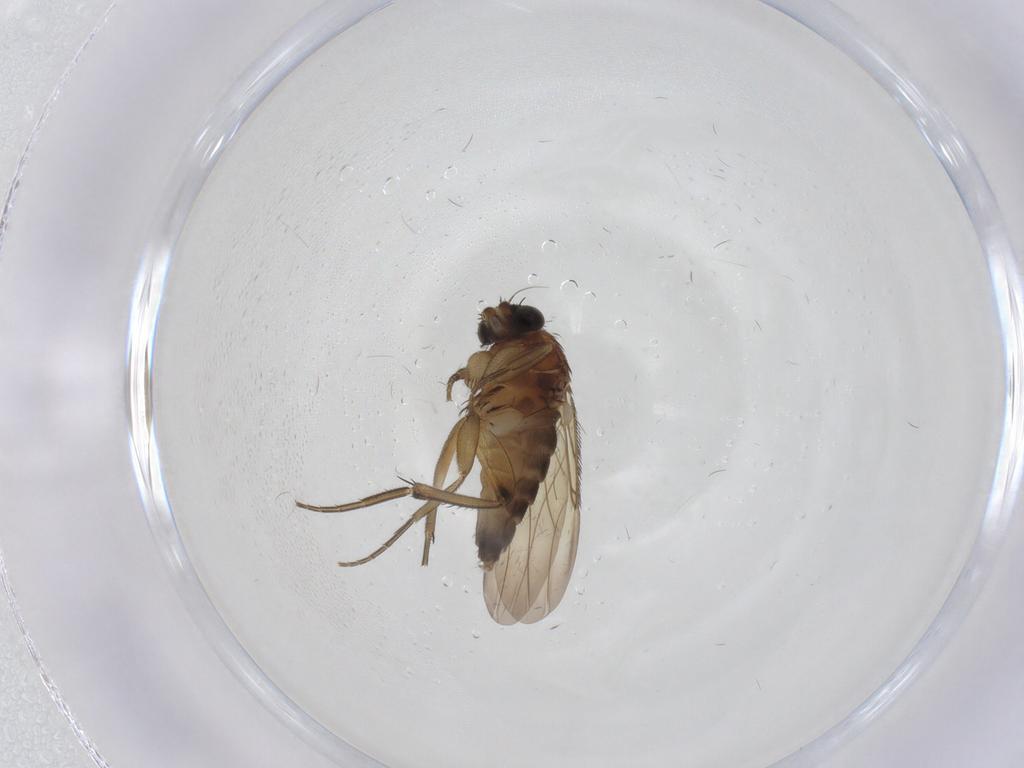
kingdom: Animalia
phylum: Arthropoda
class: Insecta
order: Diptera
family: Phoridae
